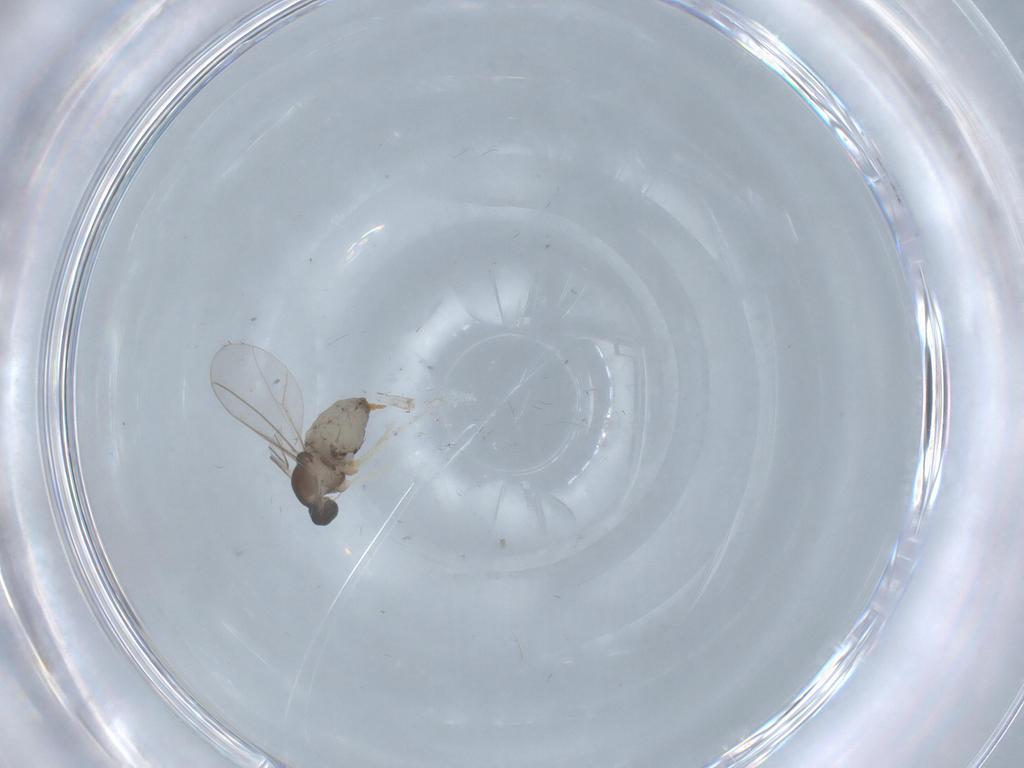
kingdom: Animalia
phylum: Arthropoda
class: Insecta
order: Diptera
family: Cecidomyiidae
